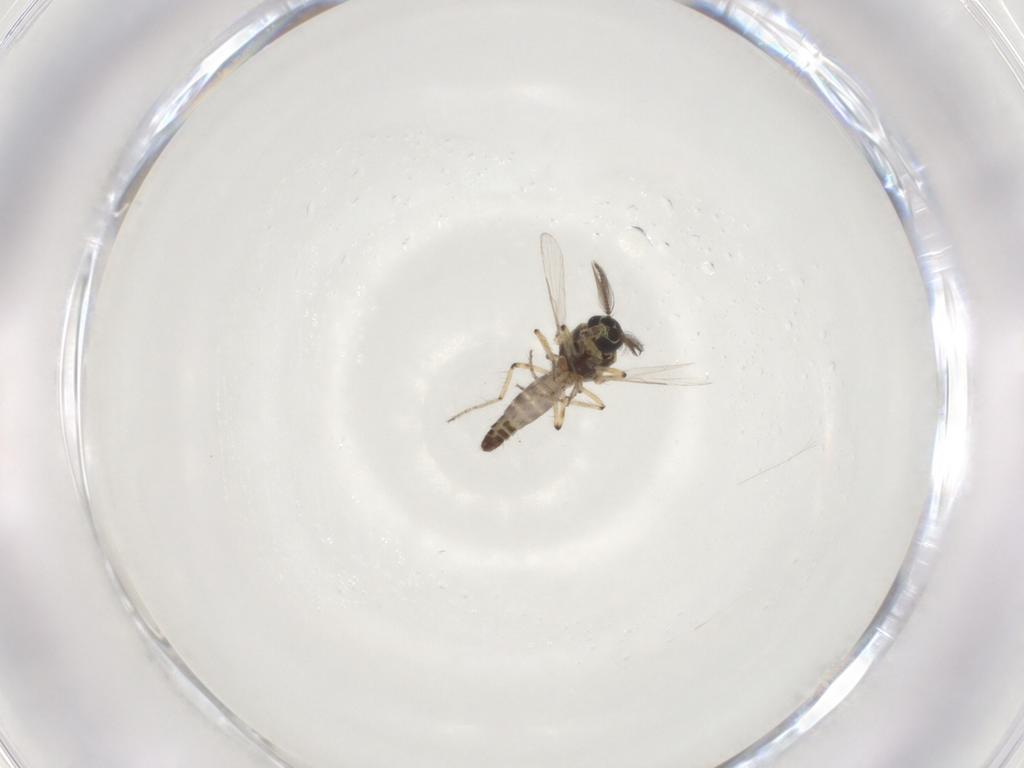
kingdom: Animalia
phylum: Arthropoda
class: Insecta
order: Diptera
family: Ceratopogonidae
